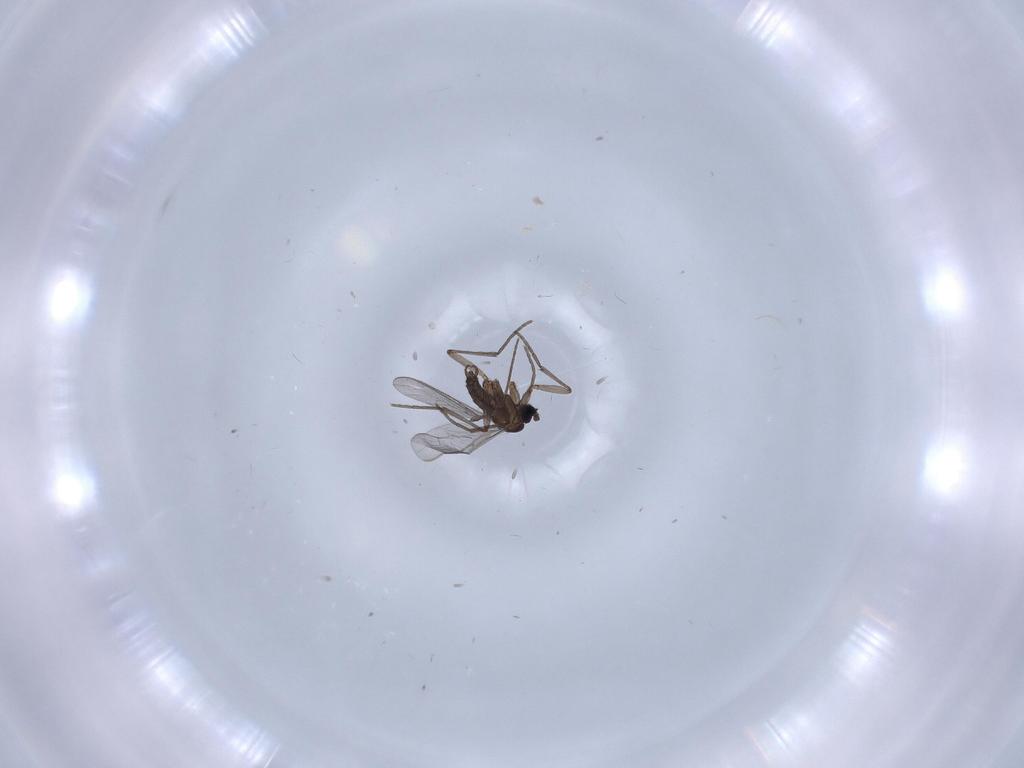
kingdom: Animalia
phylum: Arthropoda
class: Insecta
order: Diptera
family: Sciaridae
